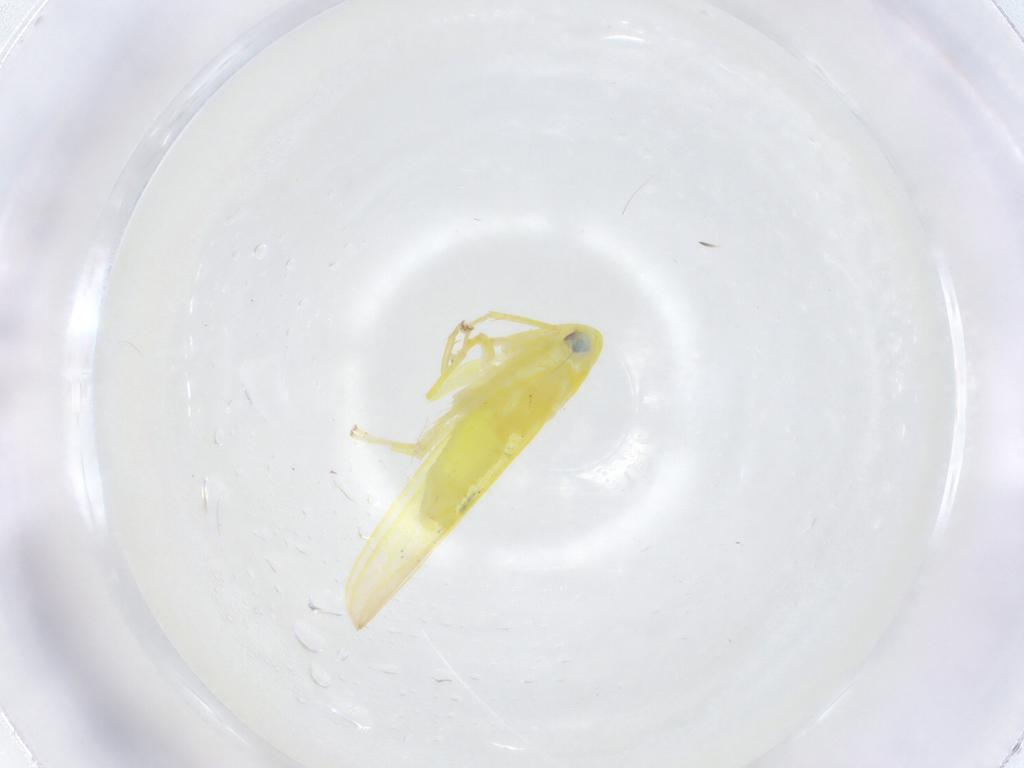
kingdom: Animalia
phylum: Arthropoda
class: Insecta
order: Hemiptera
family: Cicadellidae
